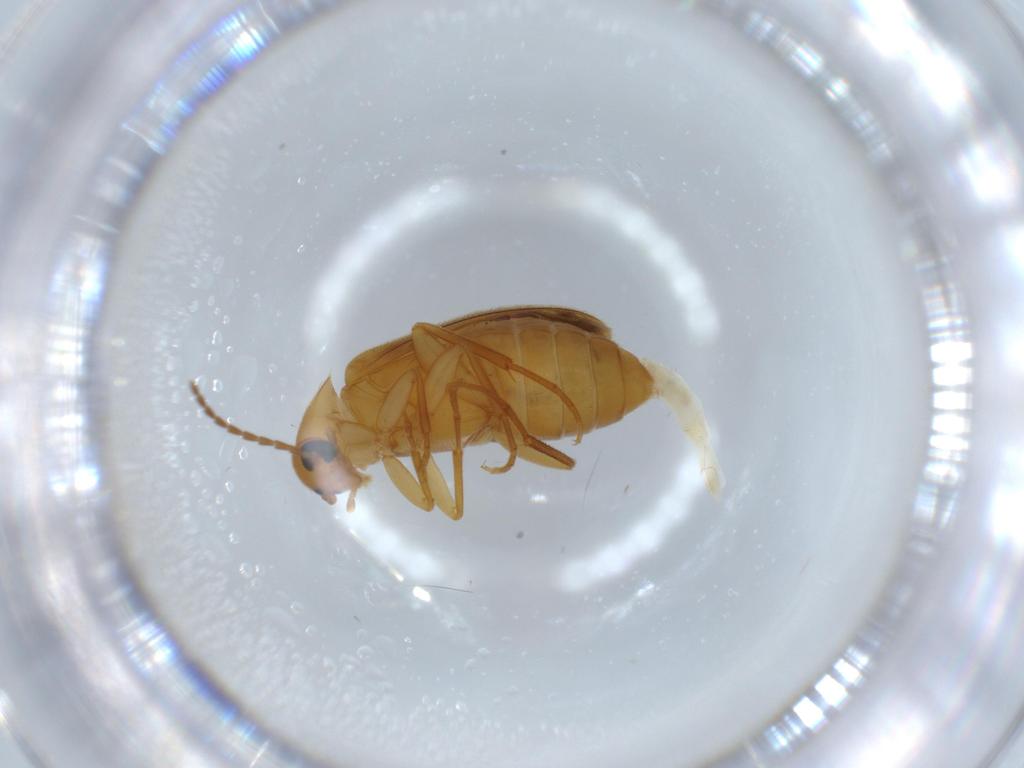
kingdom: Animalia
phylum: Arthropoda
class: Insecta
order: Coleoptera
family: Scraptiidae
